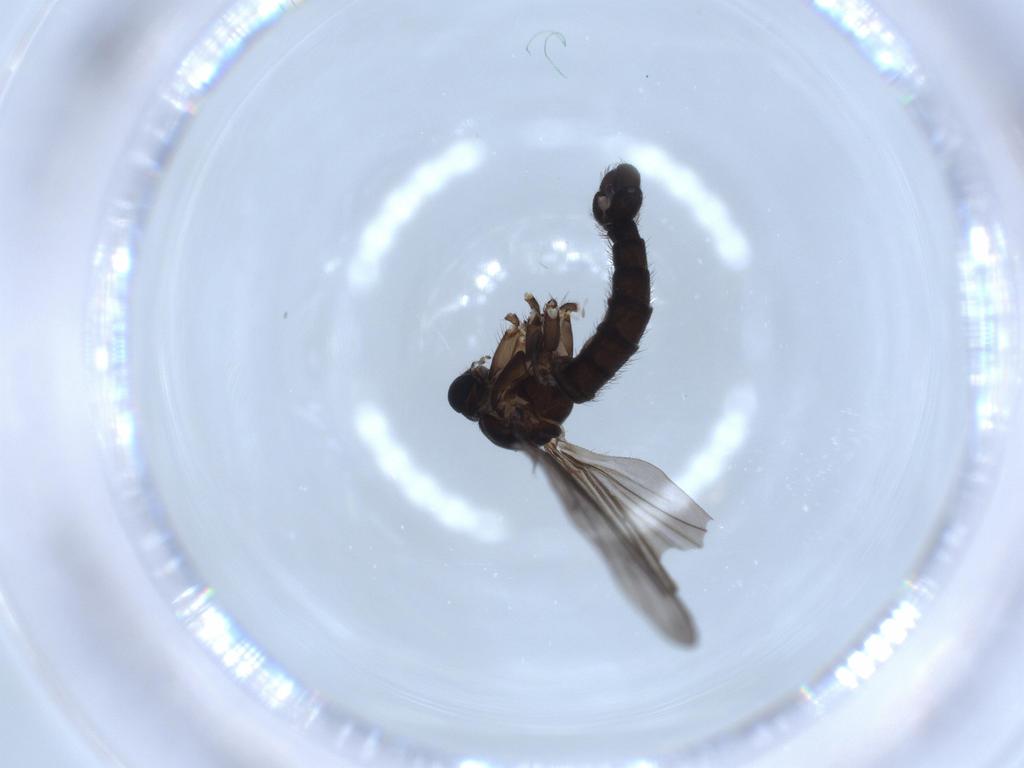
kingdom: Animalia
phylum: Arthropoda
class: Insecta
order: Diptera
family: Sciaridae
